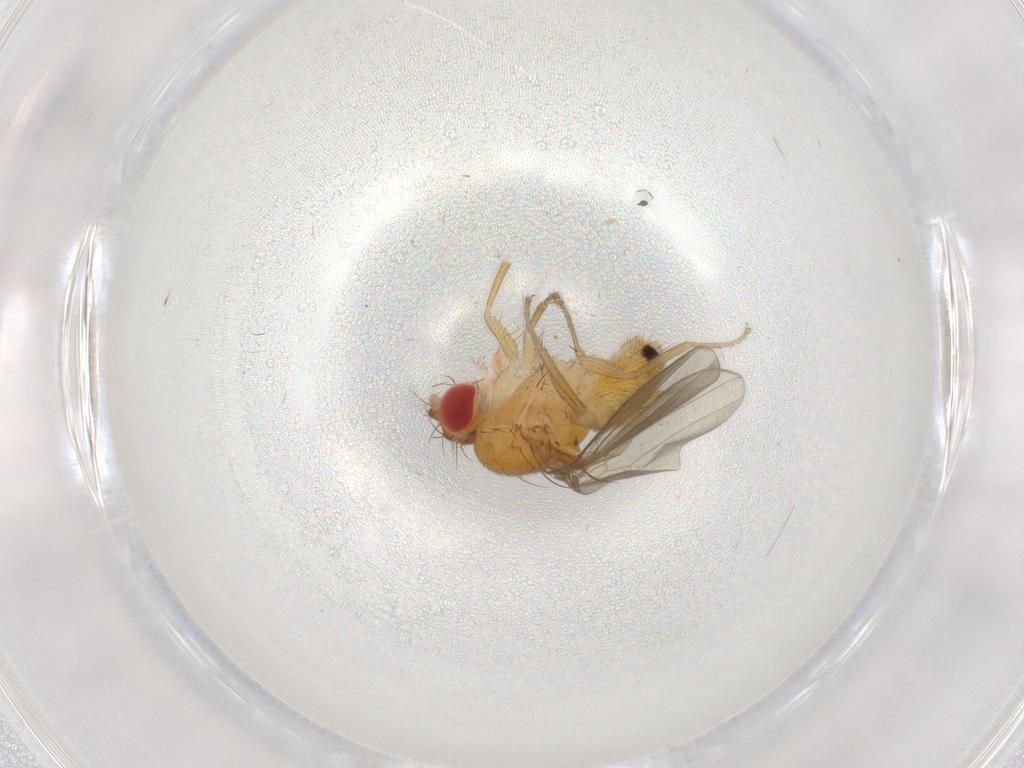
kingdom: Animalia
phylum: Arthropoda
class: Insecta
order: Diptera
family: Drosophilidae
